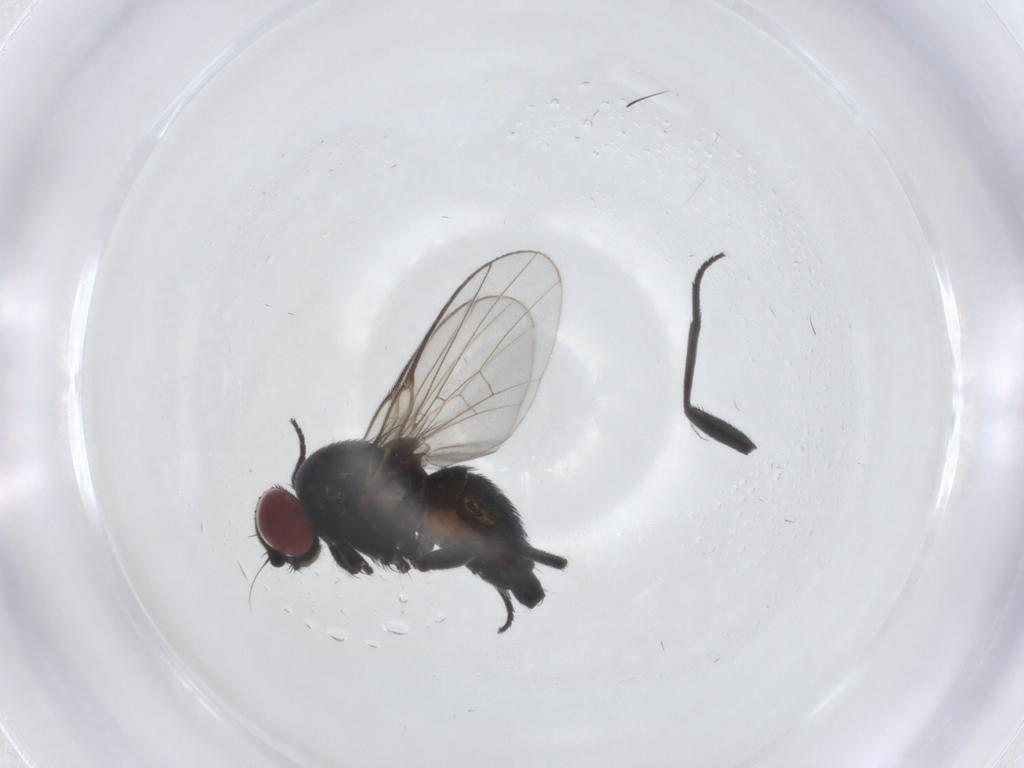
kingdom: Animalia
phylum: Arthropoda
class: Insecta
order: Diptera
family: Agromyzidae
